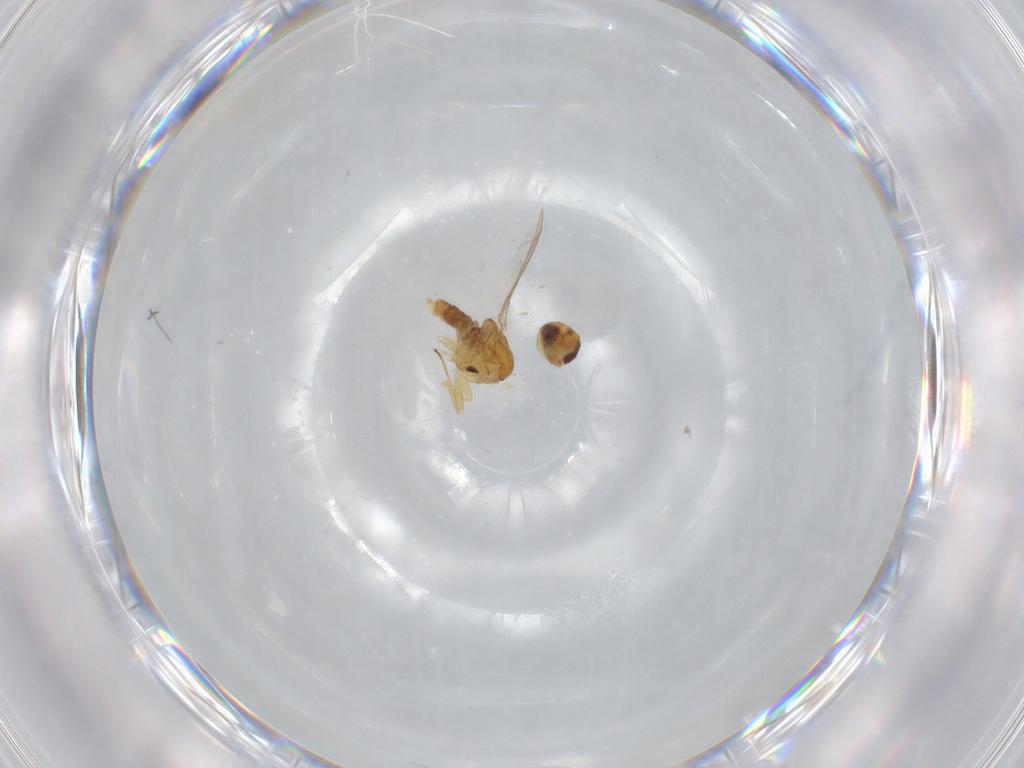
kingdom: Animalia
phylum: Arthropoda
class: Insecta
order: Diptera
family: Chloropidae
